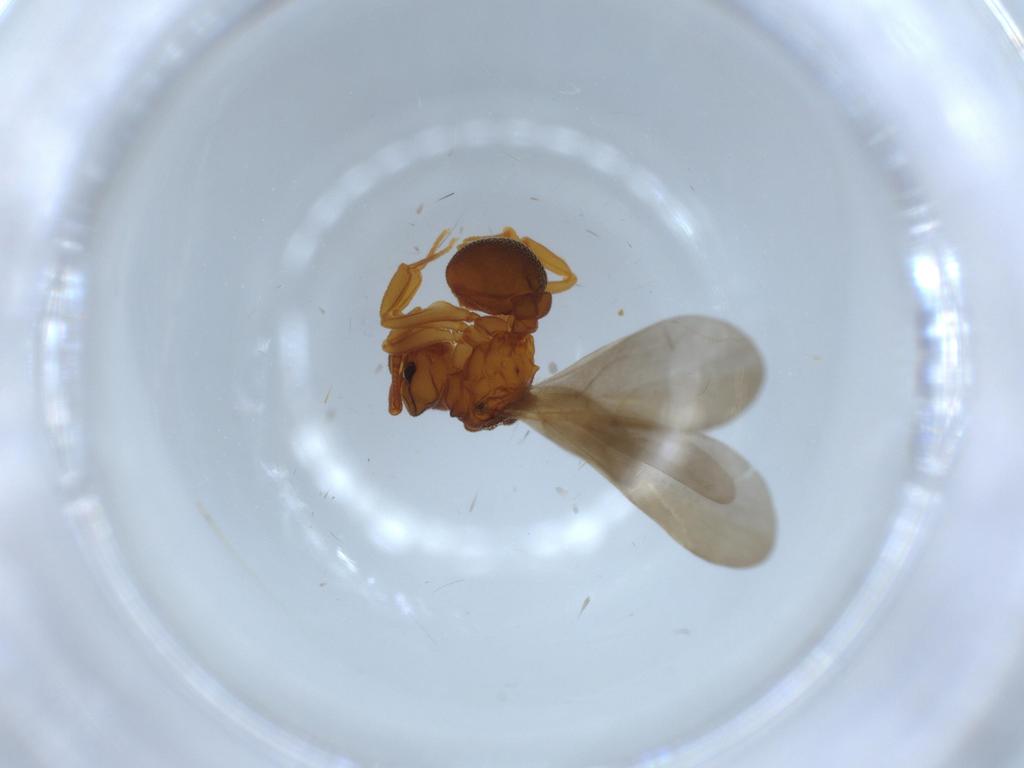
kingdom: Animalia
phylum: Arthropoda
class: Insecta
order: Hymenoptera
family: Formicidae
